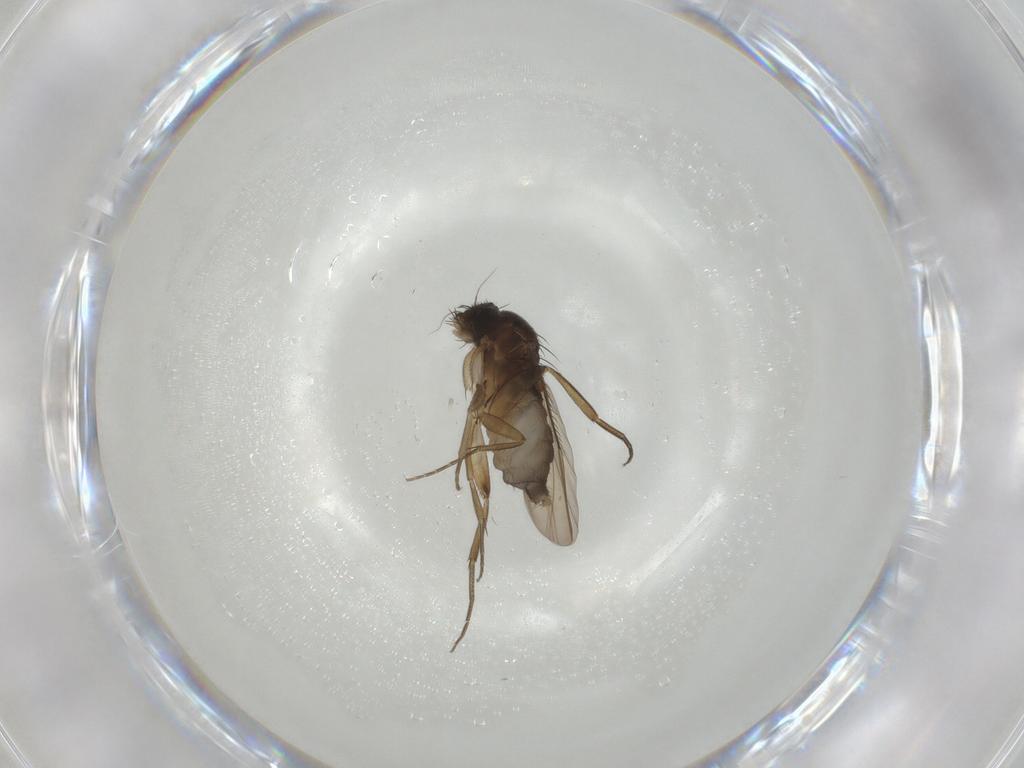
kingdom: Animalia
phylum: Arthropoda
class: Insecta
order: Diptera
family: Phoridae
